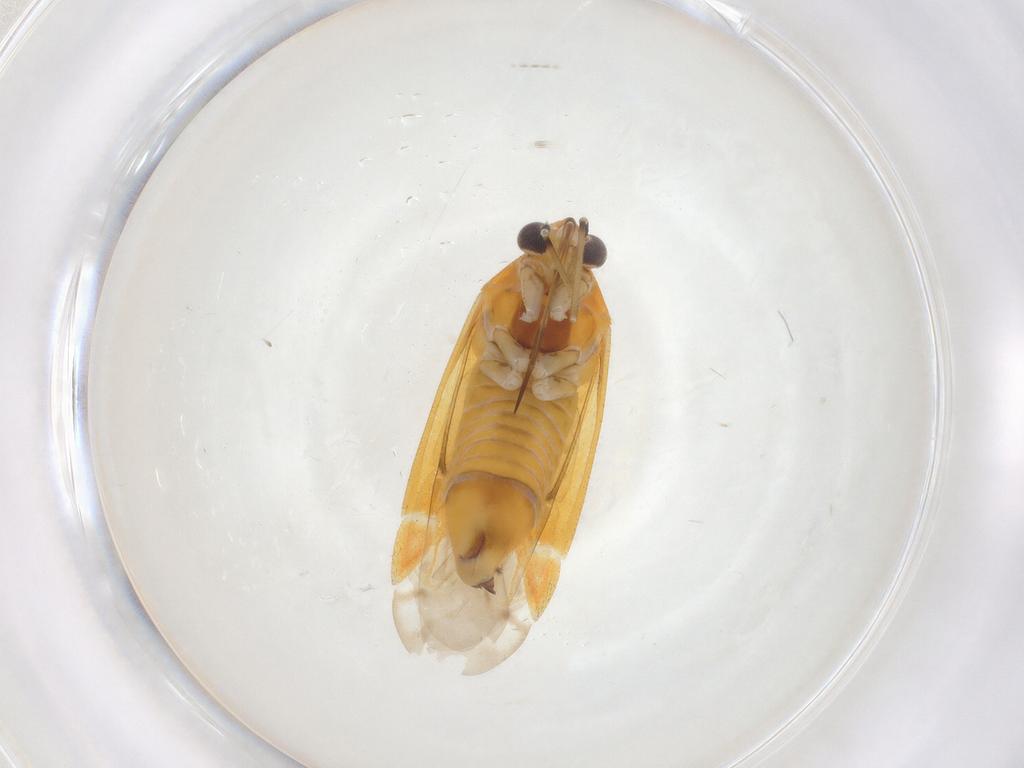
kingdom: Animalia
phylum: Arthropoda
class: Insecta
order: Hemiptera
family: Miridae
